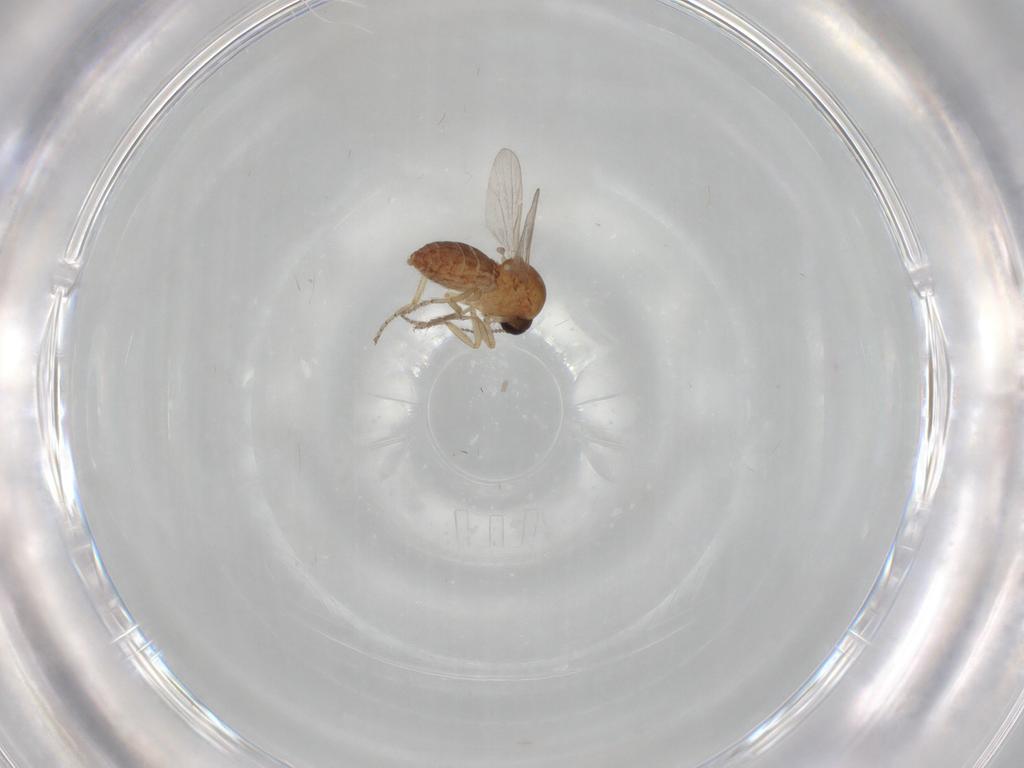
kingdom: Animalia
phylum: Arthropoda
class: Insecta
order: Diptera
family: Ceratopogonidae
